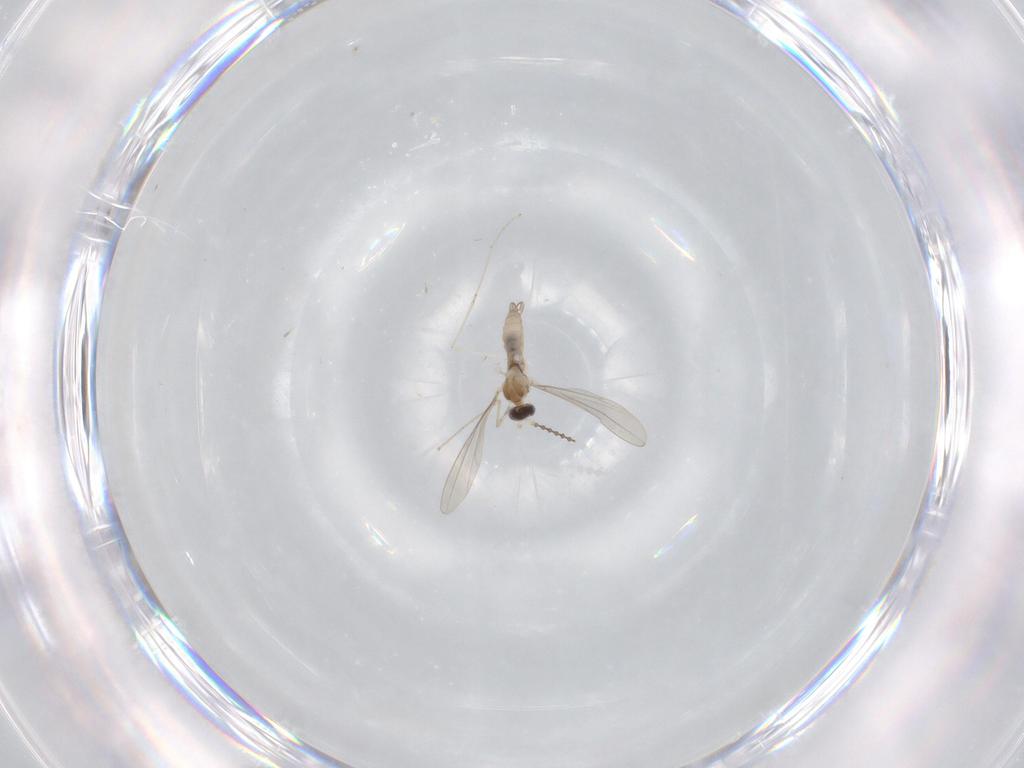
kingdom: Animalia
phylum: Arthropoda
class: Insecta
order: Diptera
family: Cecidomyiidae
